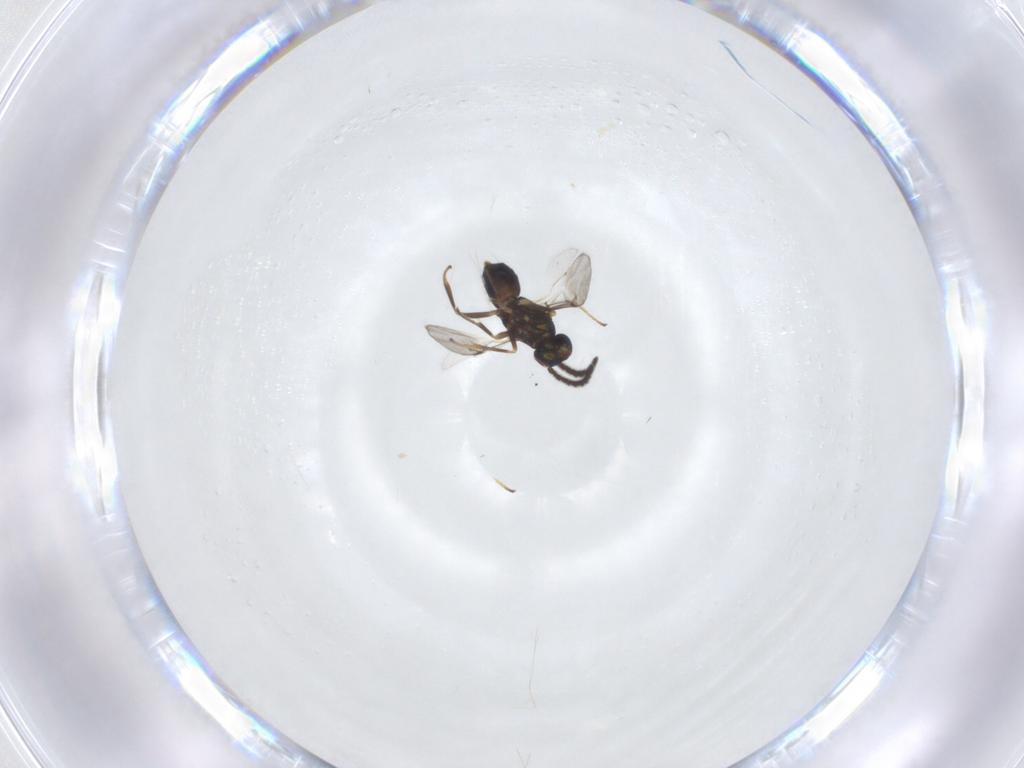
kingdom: Animalia
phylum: Arthropoda
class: Insecta
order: Hymenoptera
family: Encyrtidae
